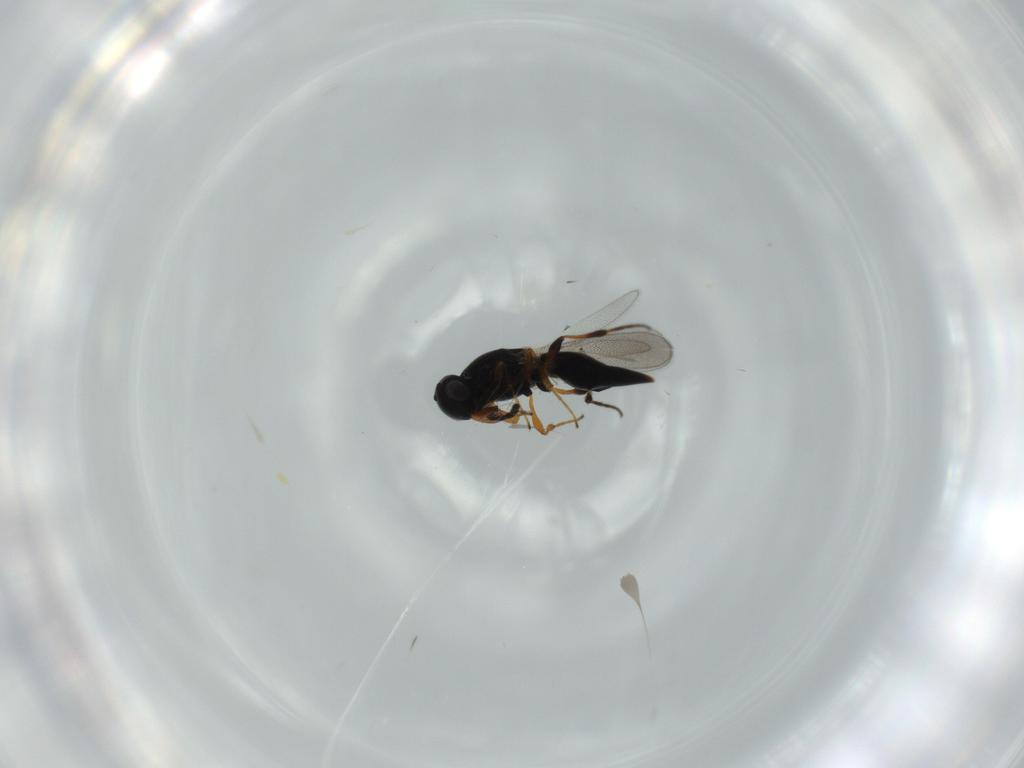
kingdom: Animalia
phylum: Arthropoda
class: Insecta
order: Hymenoptera
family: Platygastridae
